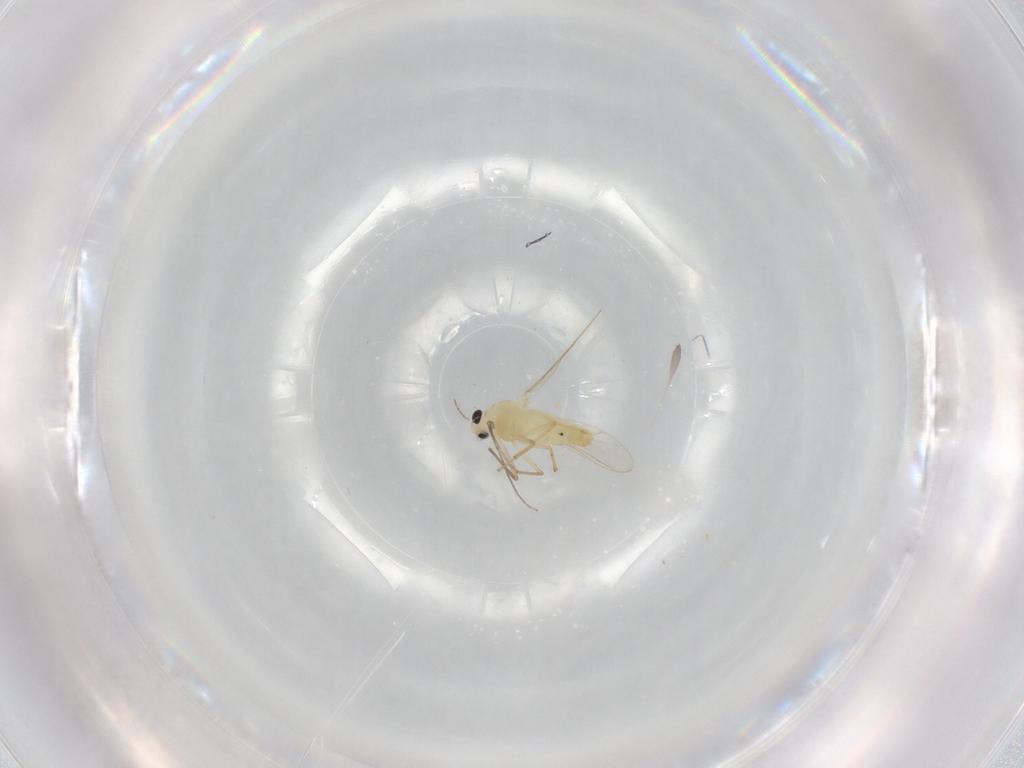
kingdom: Animalia
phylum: Arthropoda
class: Insecta
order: Diptera
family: Chironomidae
